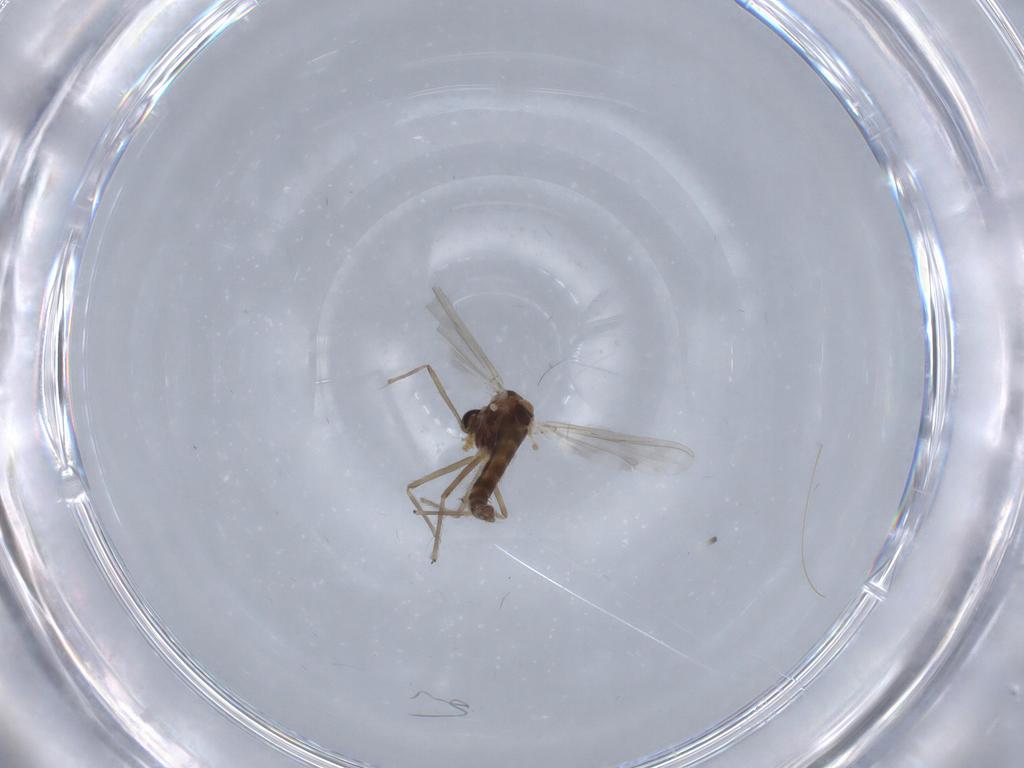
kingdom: Animalia
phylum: Arthropoda
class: Insecta
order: Diptera
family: Chironomidae
